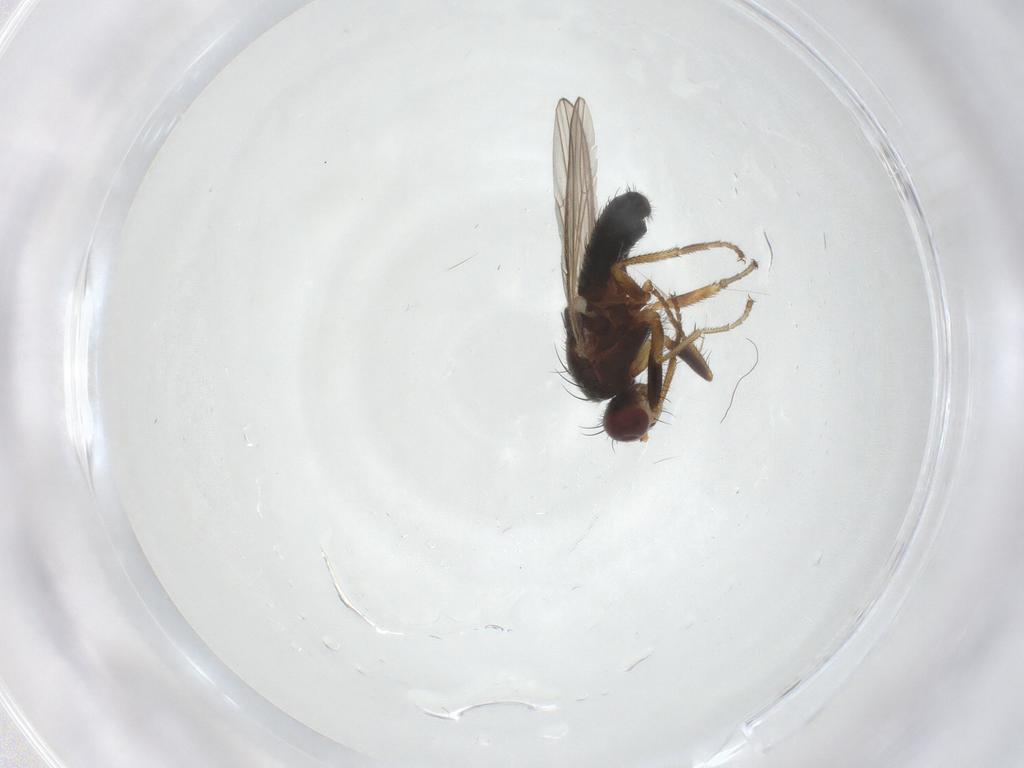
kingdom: Animalia
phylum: Arthropoda
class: Insecta
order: Diptera
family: Heleomyzidae
